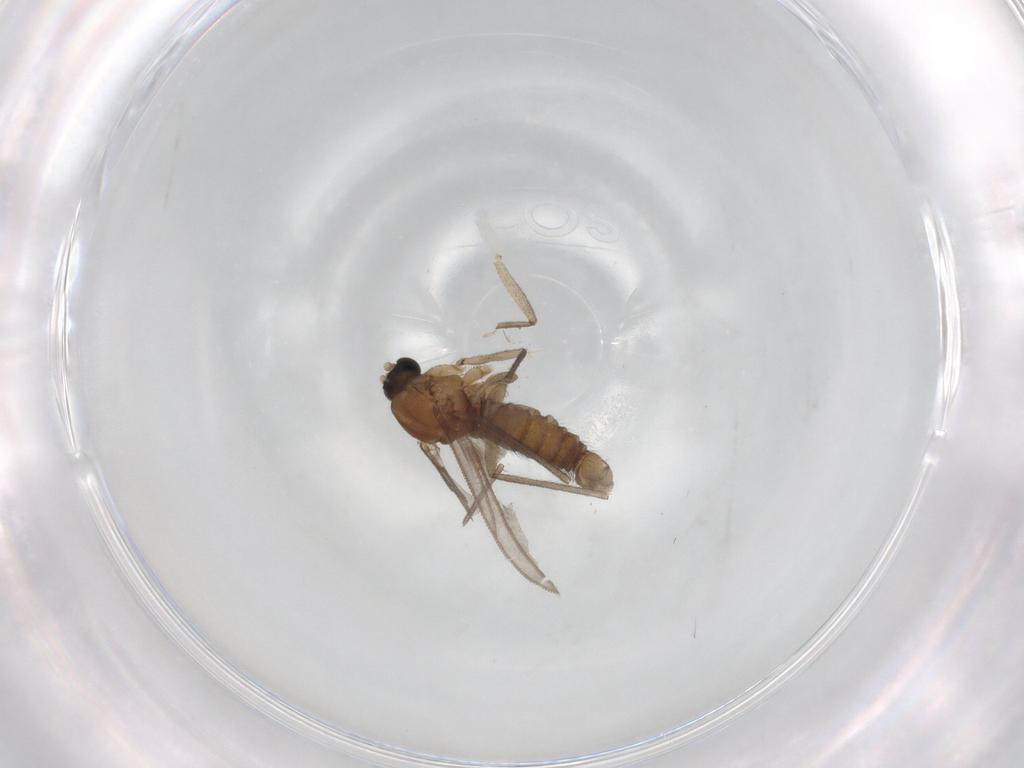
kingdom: Animalia
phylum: Arthropoda
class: Insecta
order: Diptera
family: Sciaridae
